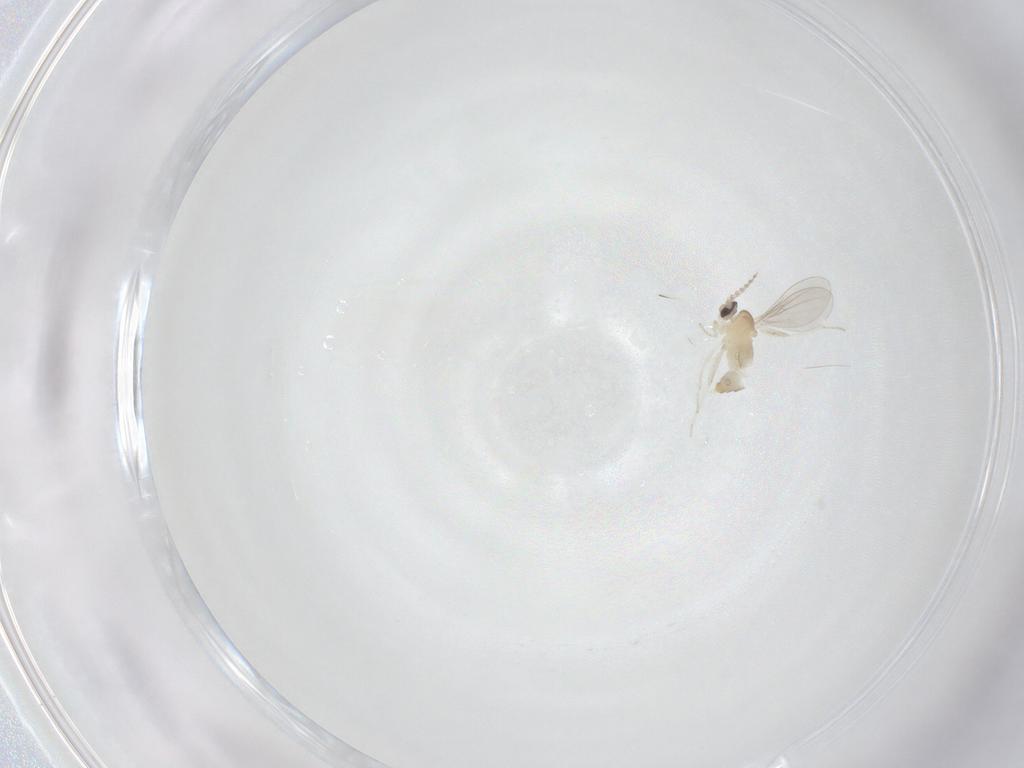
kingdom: Animalia
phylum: Arthropoda
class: Insecta
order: Diptera
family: Cecidomyiidae
